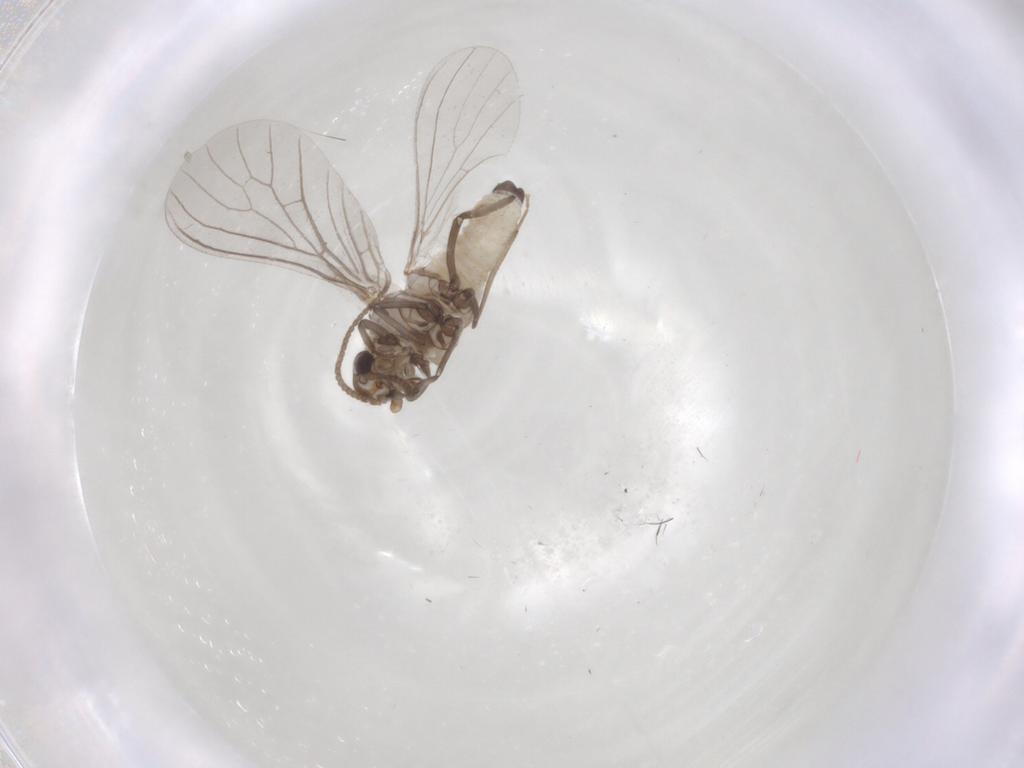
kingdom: Animalia
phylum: Arthropoda
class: Insecta
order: Neuroptera
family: Coniopterygidae
